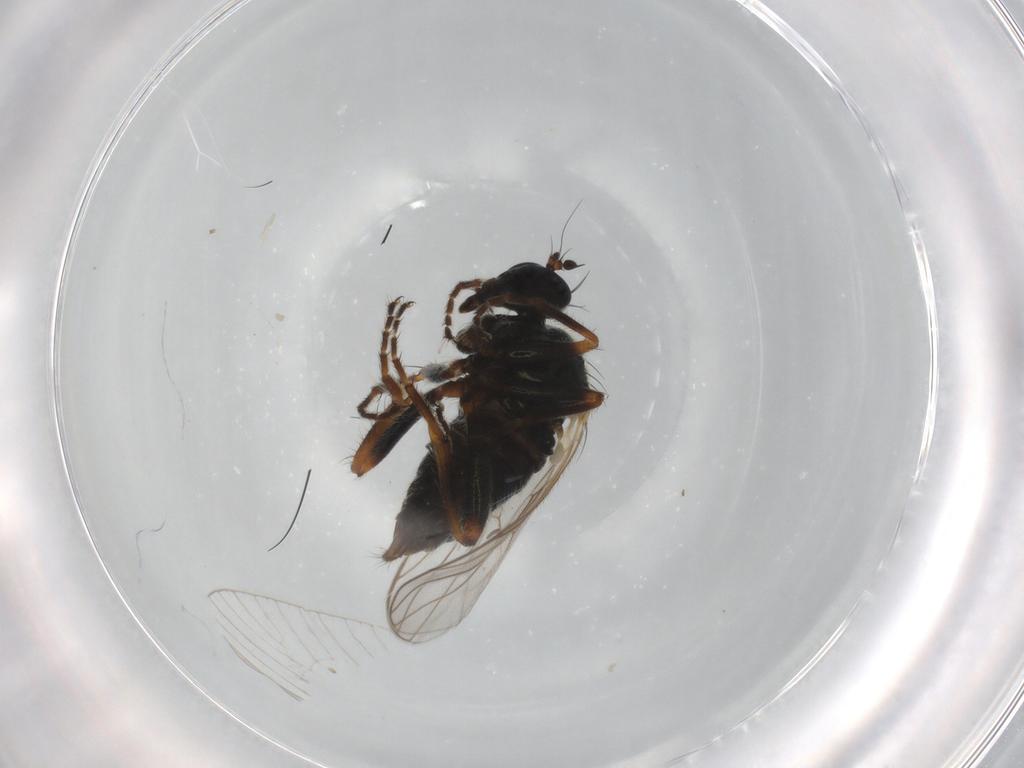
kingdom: Animalia
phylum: Arthropoda
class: Insecta
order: Diptera
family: Hybotidae
